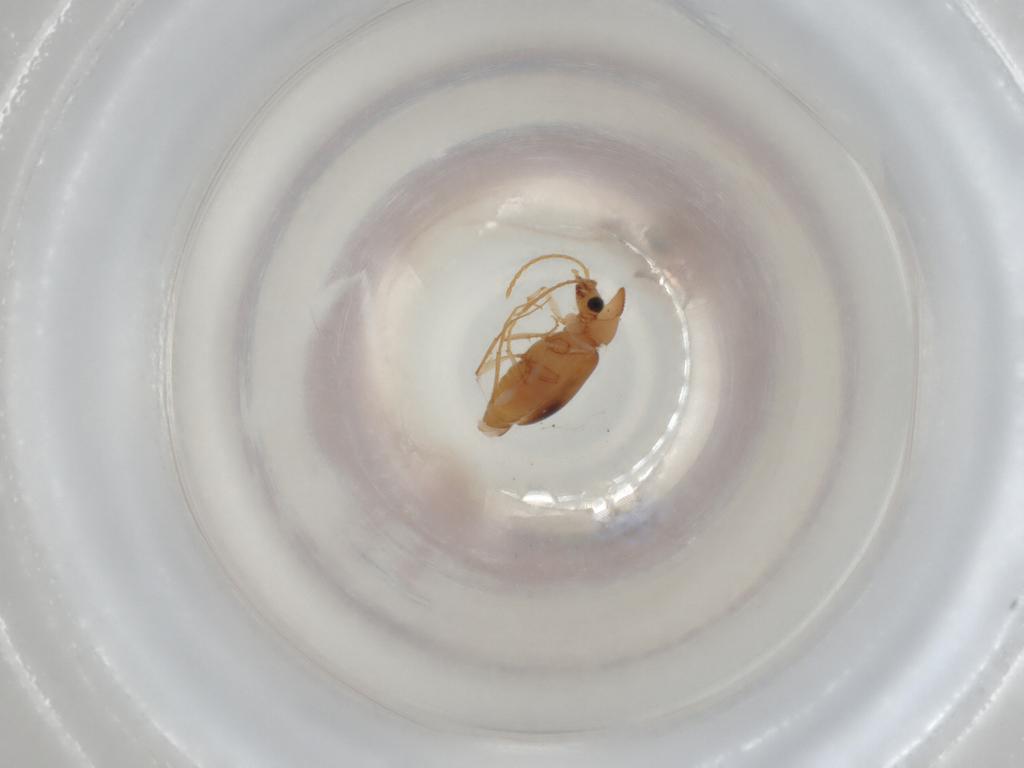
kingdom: Animalia
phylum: Arthropoda
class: Insecta
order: Coleoptera
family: Anthicidae
